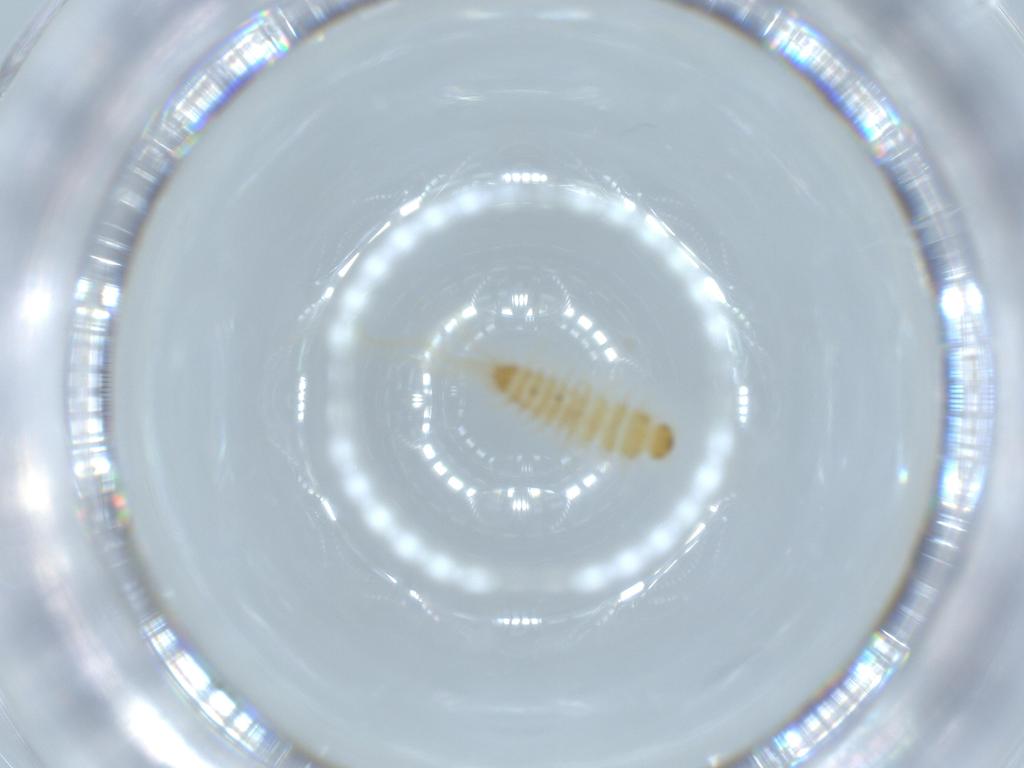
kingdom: Animalia
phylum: Arthropoda
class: Insecta
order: Coleoptera
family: Dermestidae
